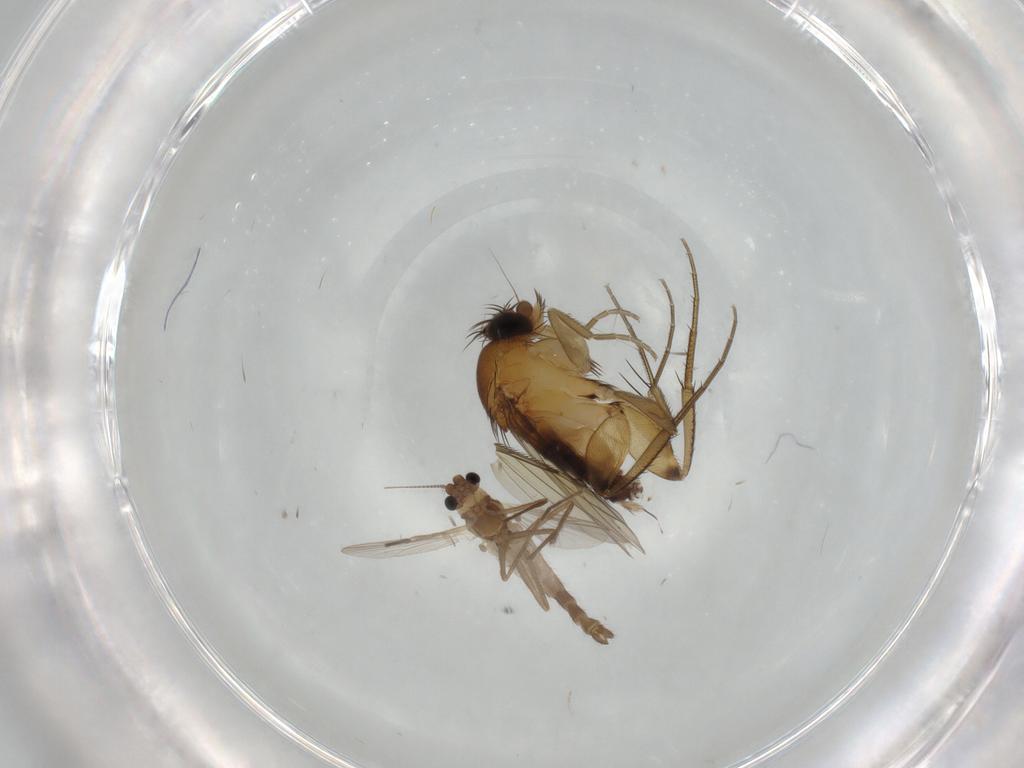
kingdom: Animalia
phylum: Arthropoda
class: Insecta
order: Diptera
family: Chironomidae
